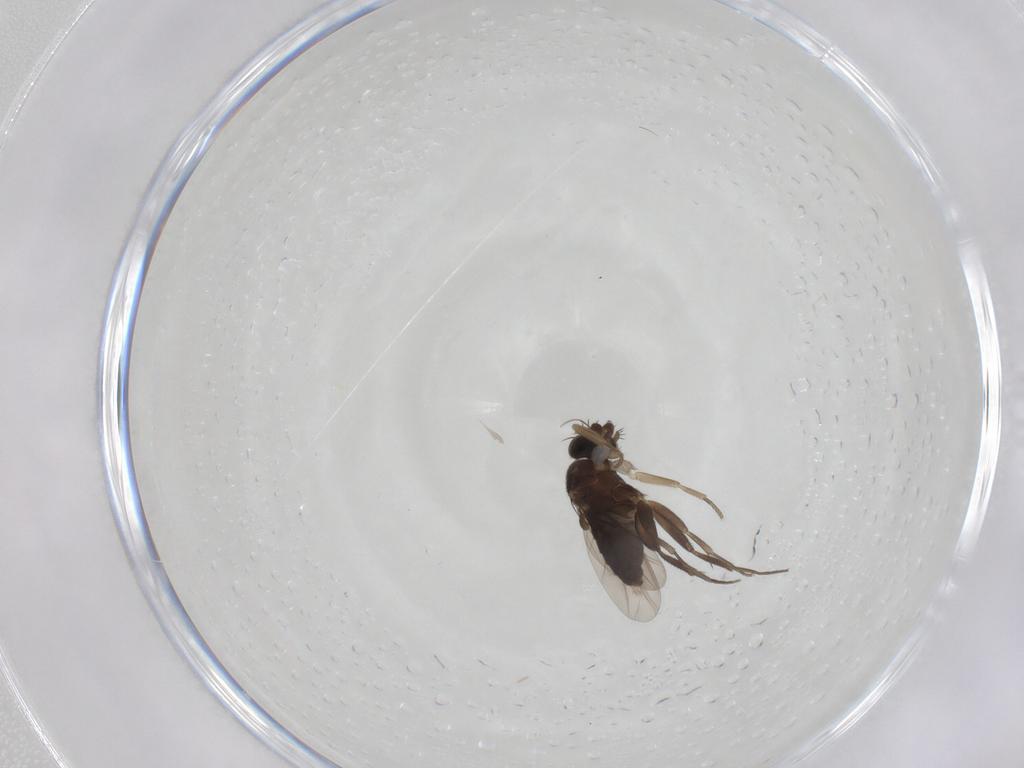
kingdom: Animalia
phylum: Arthropoda
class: Insecta
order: Diptera
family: Phoridae
